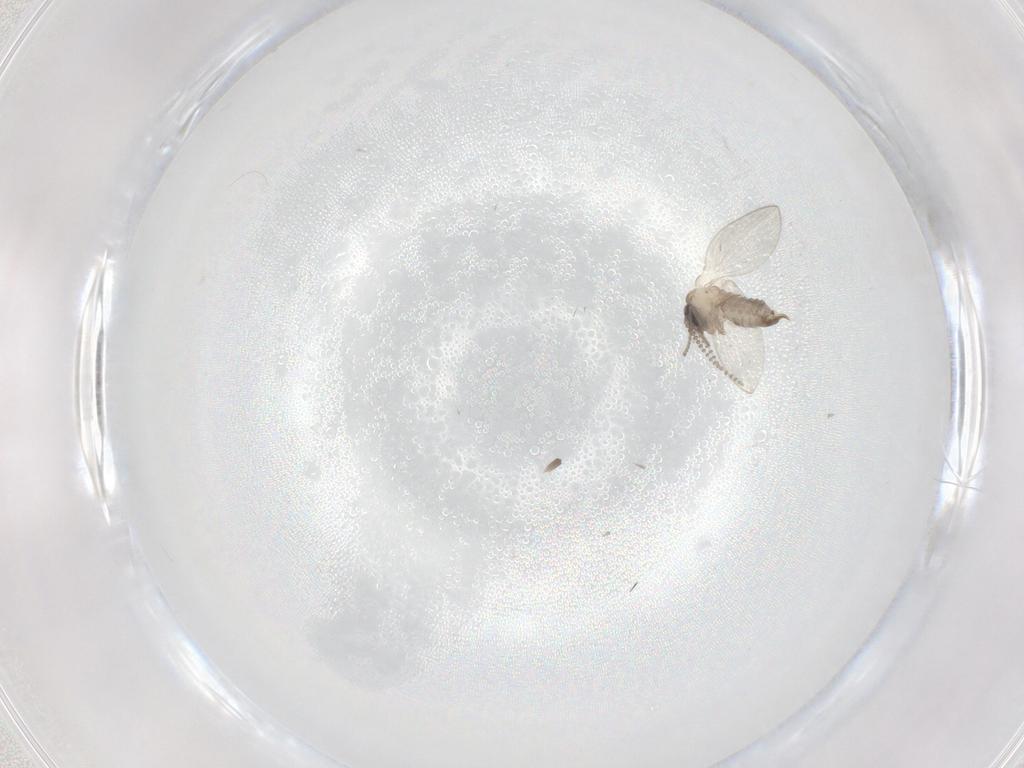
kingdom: Animalia
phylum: Arthropoda
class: Insecta
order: Diptera
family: Psychodidae
